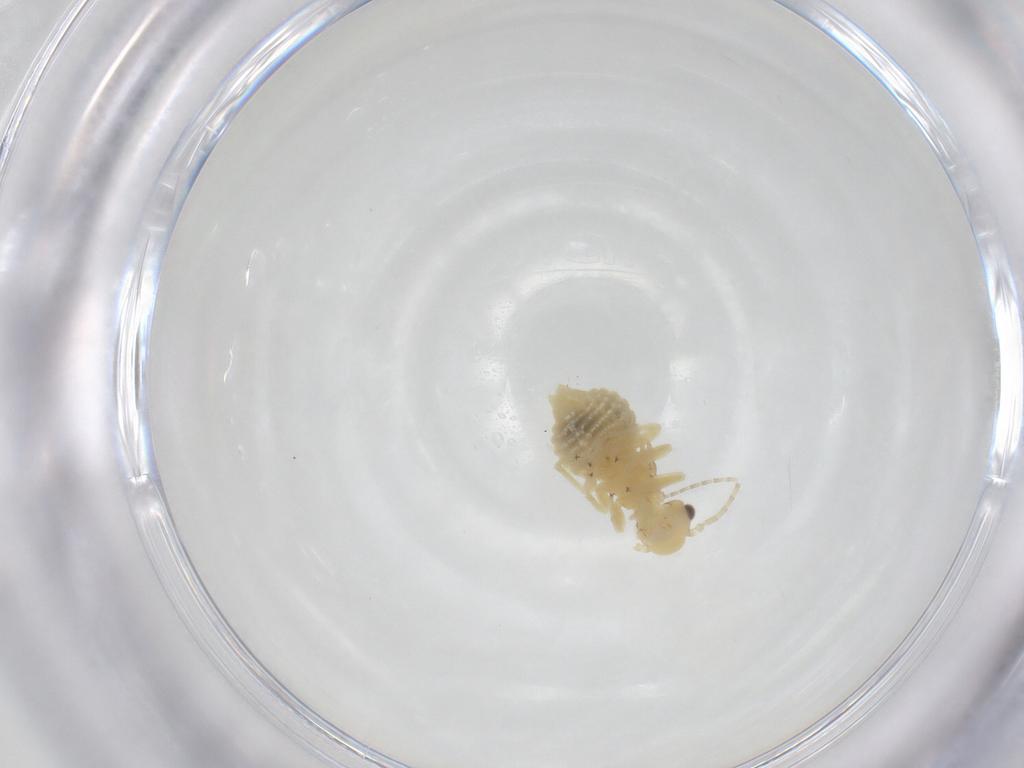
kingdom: Animalia
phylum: Arthropoda
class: Insecta
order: Psocodea
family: Amphipsocidae
